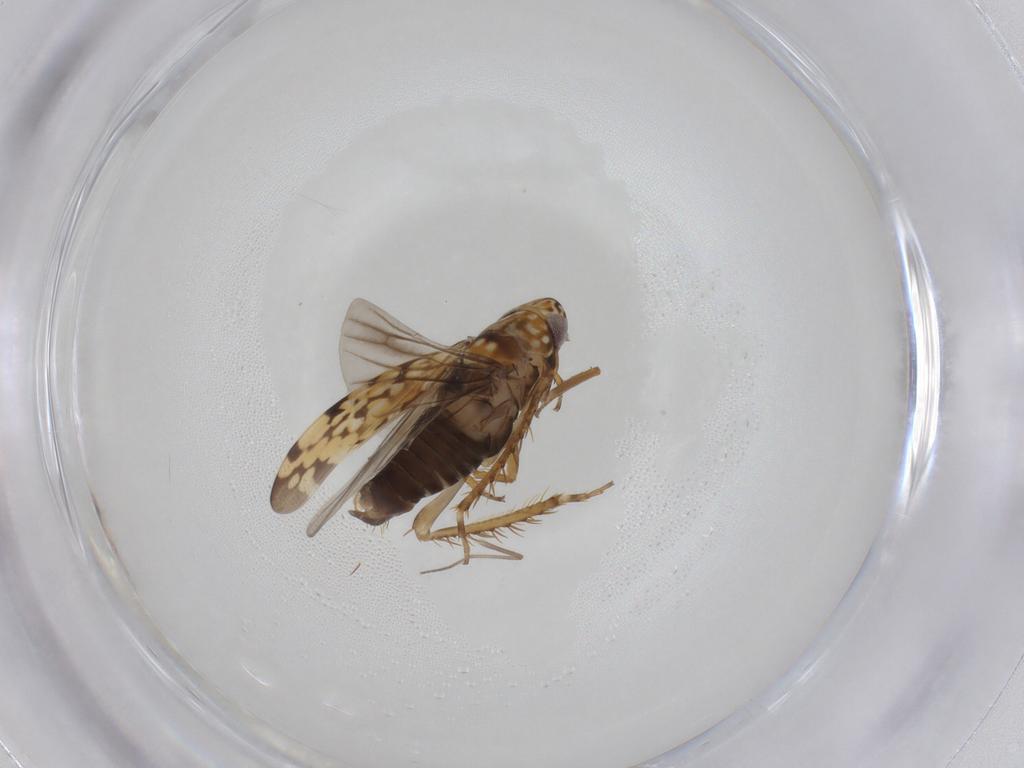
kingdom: Animalia
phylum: Arthropoda
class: Insecta
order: Hemiptera
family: Cicadellidae
